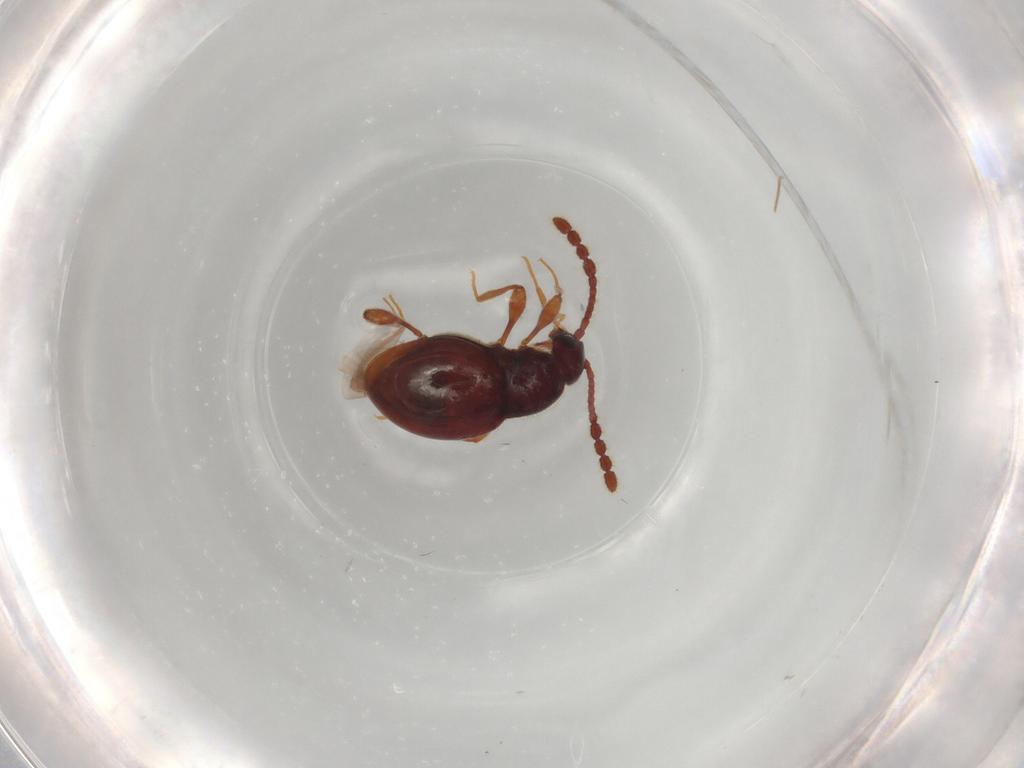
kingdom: Animalia
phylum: Arthropoda
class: Insecta
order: Coleoptera
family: Staphylinidae
